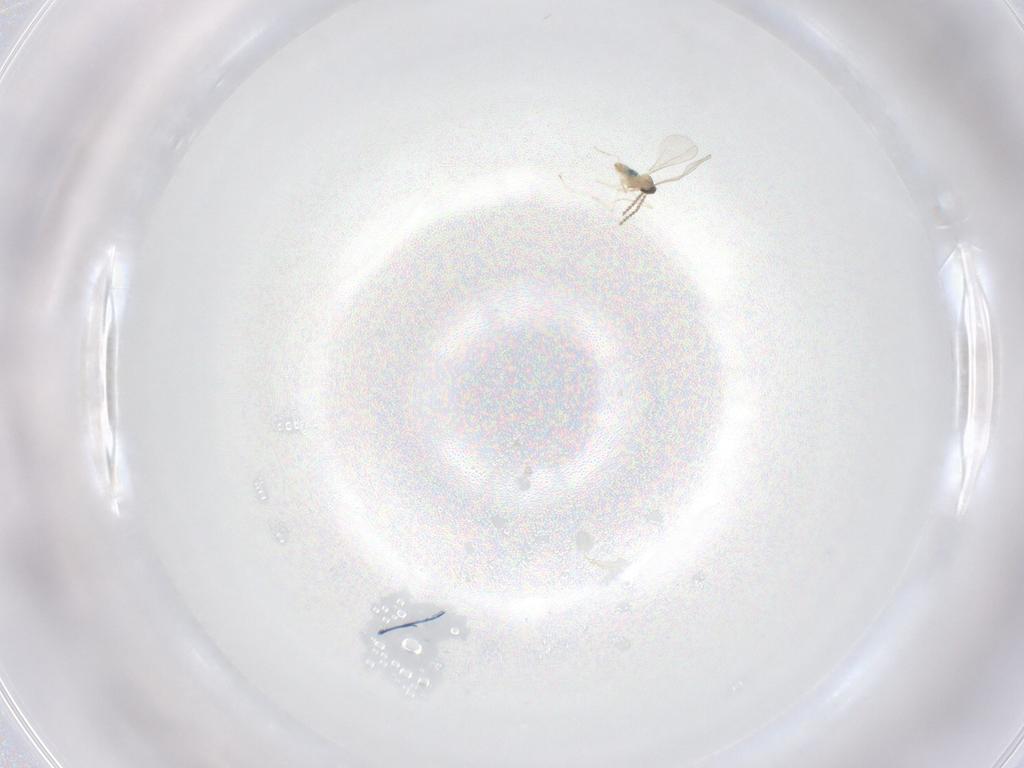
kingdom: Animalia
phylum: Arthropoda
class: Insecta
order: Diptera
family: Cecidomyiidae
